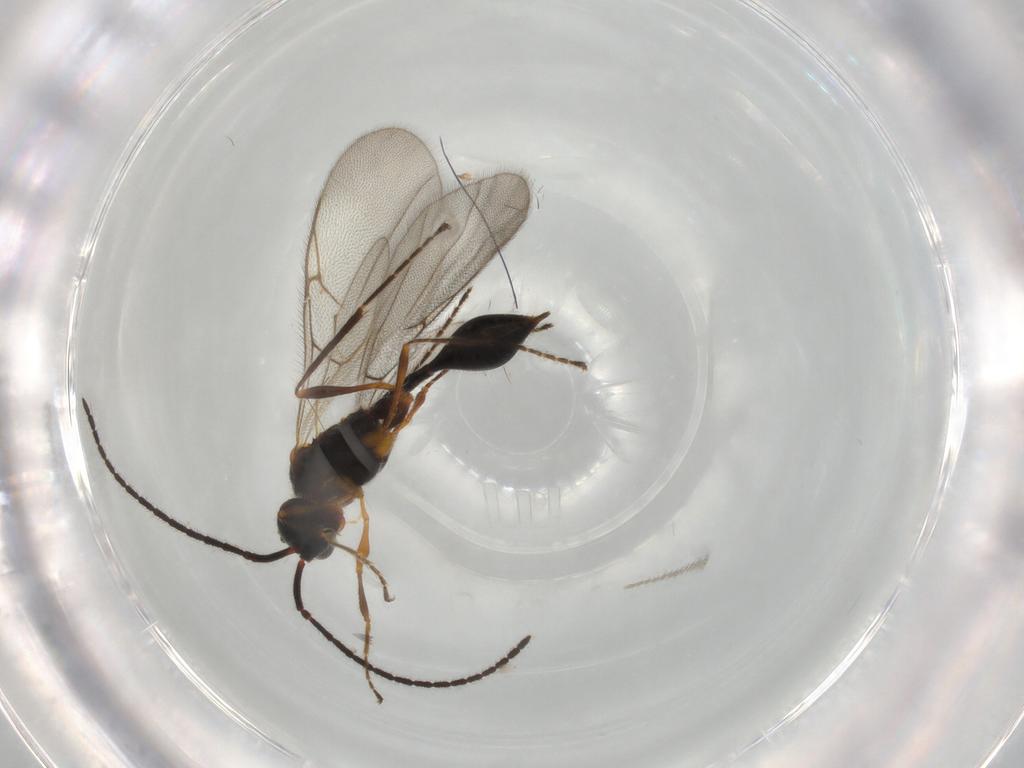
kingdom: Animalia
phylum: Arthropoda
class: Insecta
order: Hymenoptera
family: Diapriidae
